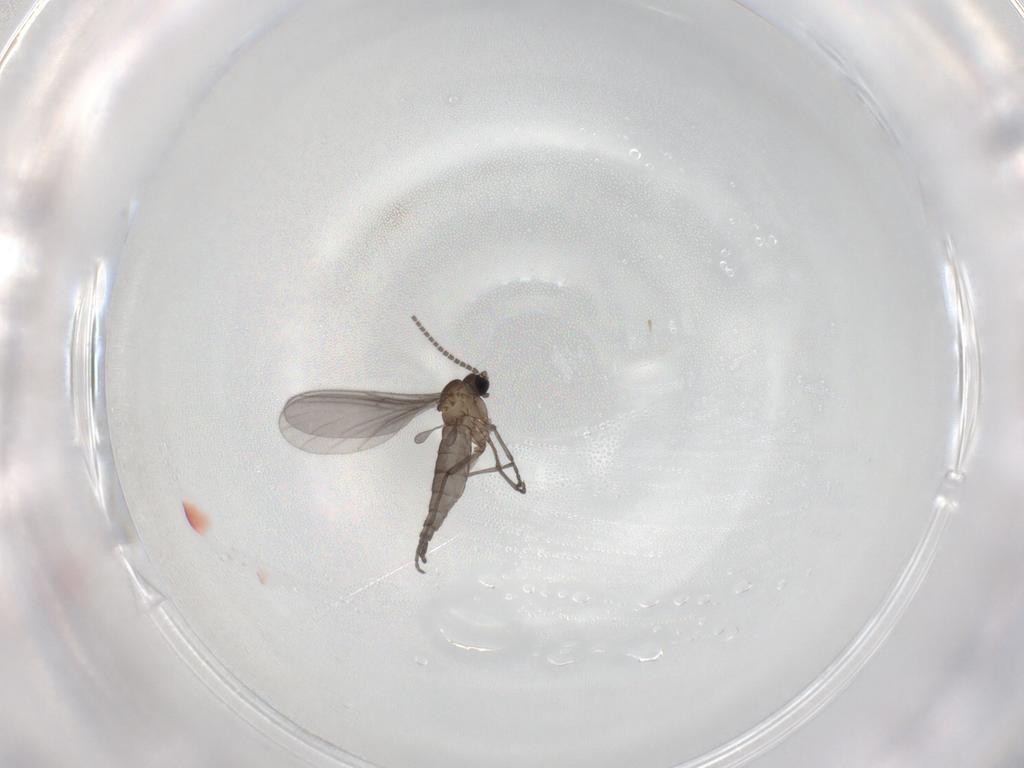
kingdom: Animalia
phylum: Arthropoda
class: Insecta
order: Diptera
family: Sciaridae
